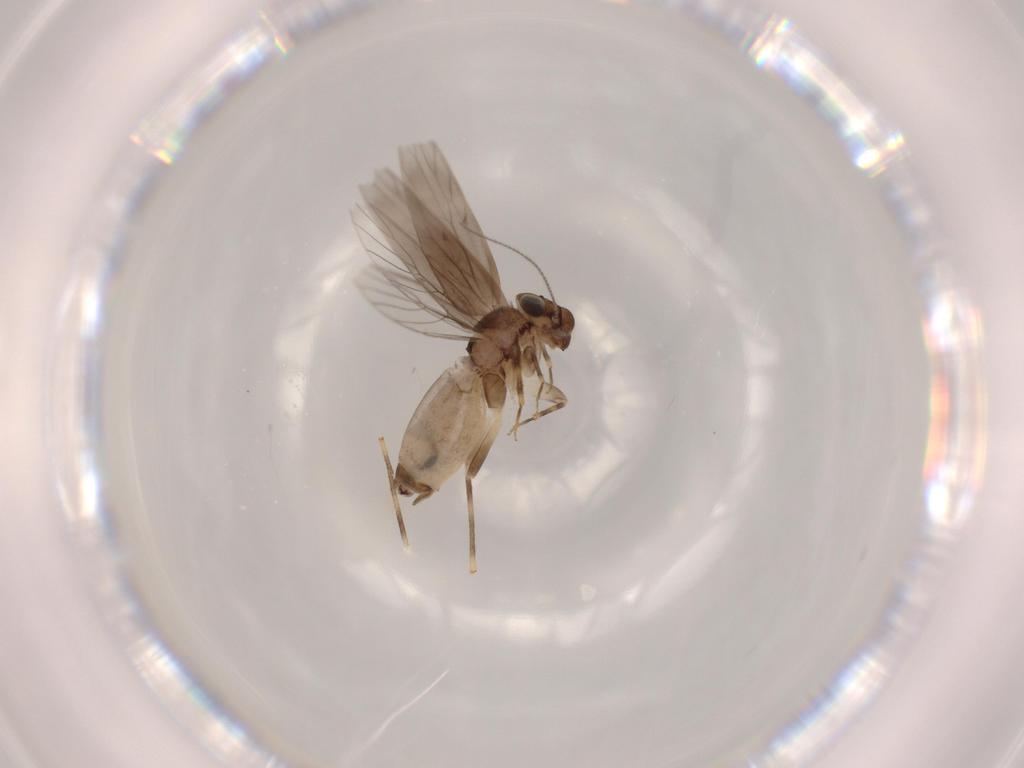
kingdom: Animalia
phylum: Arthropoda
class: Insecta
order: Psocodea
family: Lepidopsocidae
